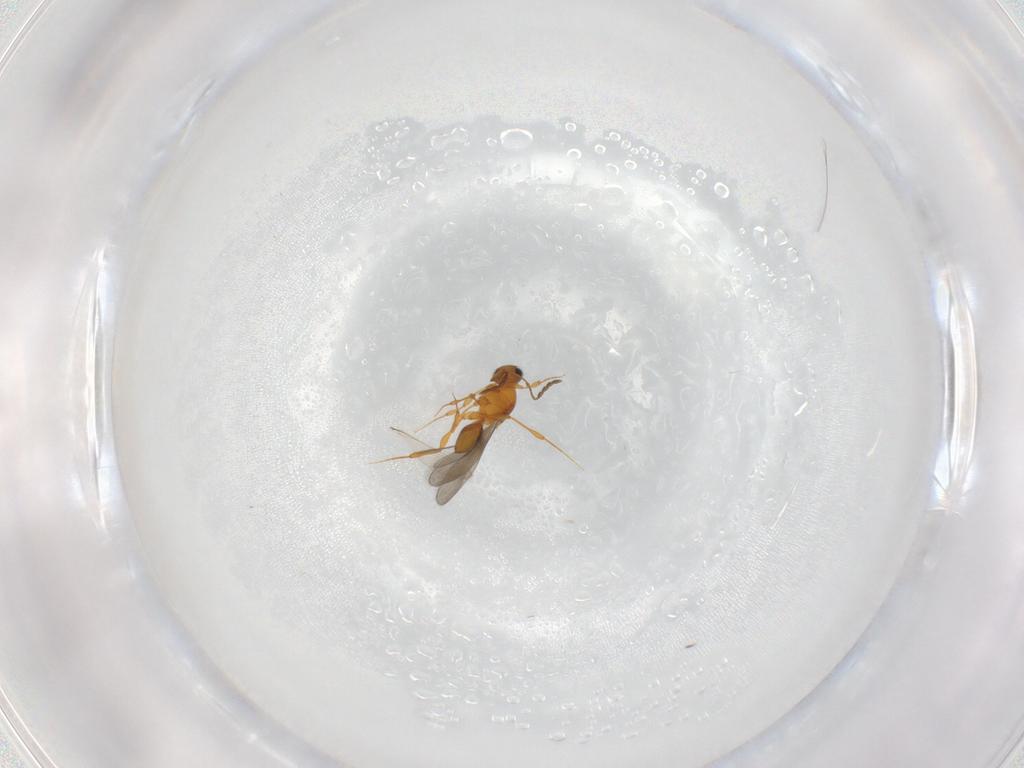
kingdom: Animalia
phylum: Arthropoda
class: Insecta
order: Hymenoptera
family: Platygastridae
